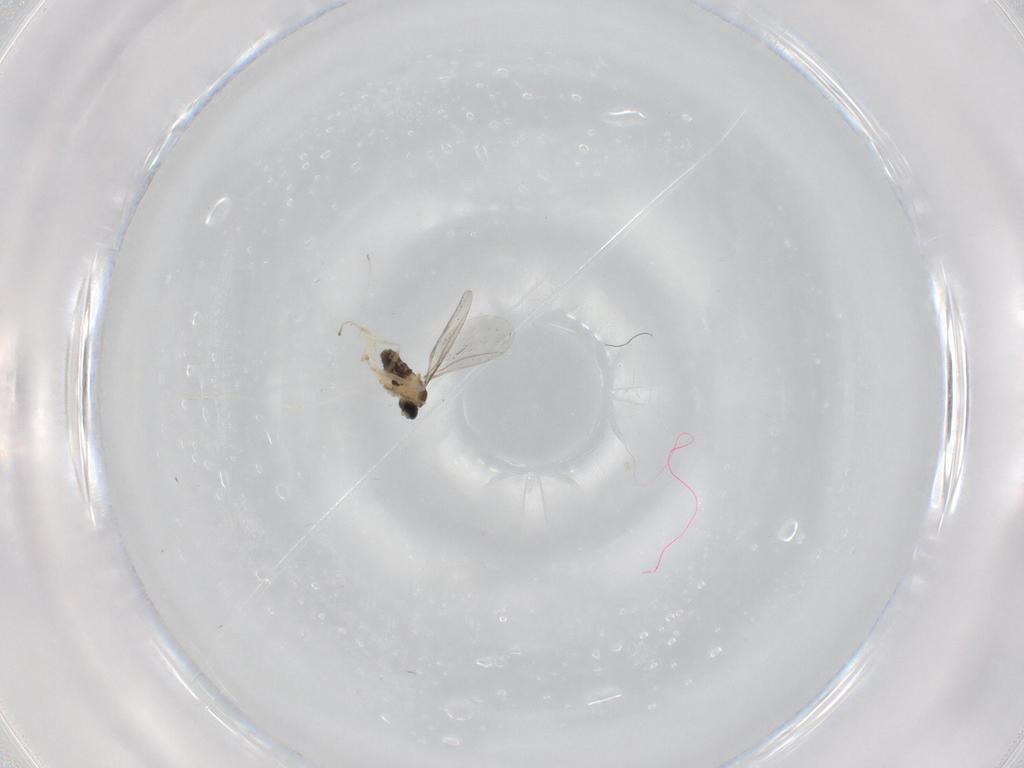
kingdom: Animalia
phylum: Arthropoda
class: Insecta
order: Diptera
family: Cecidomyiidae
